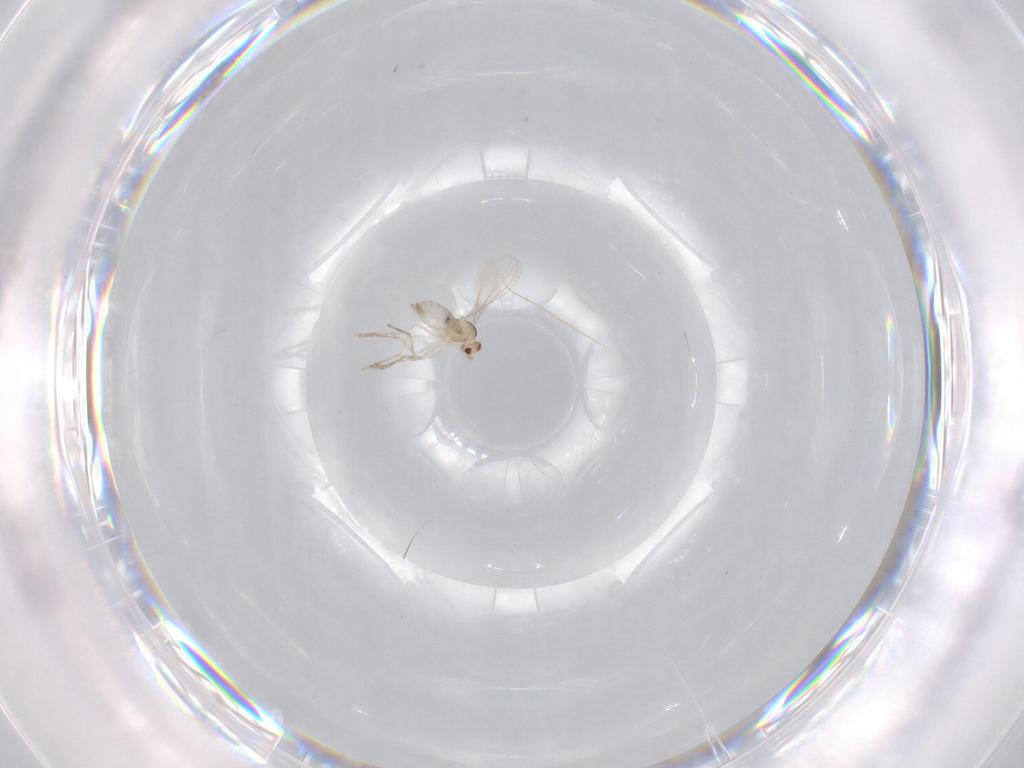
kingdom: Animalia
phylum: Arthropoda
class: Insecta
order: Diptera
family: Cecidomyiidae
